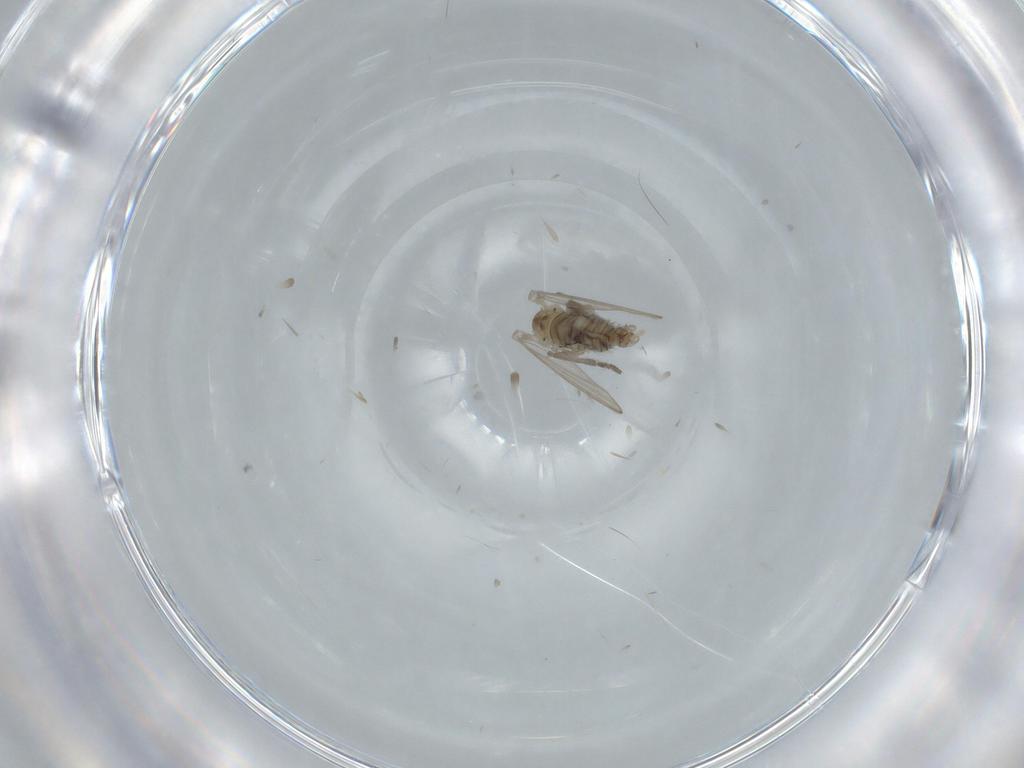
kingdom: Animalia
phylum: Arthropoda
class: Insecta
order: Diptera
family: Psychodidae
